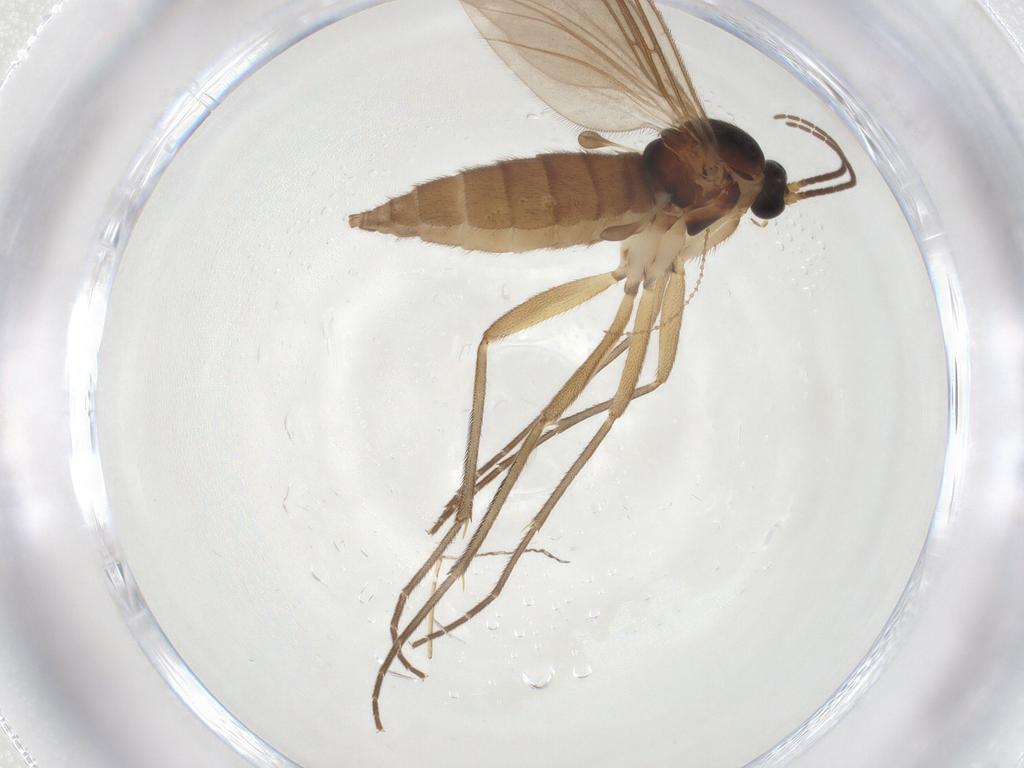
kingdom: Animalia
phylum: Arthropoda
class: Insecta
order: Diptera
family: Sciaridae
